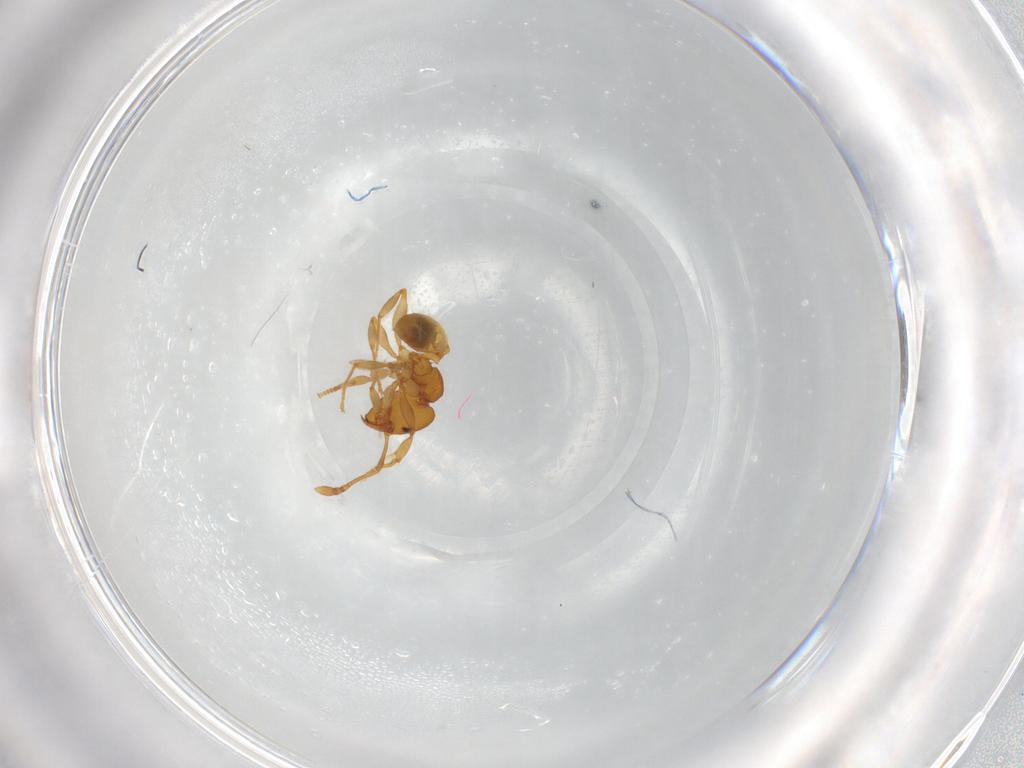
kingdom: Animalia
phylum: Arthropoda
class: Insecta
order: Hymenoptera
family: Formicidae
